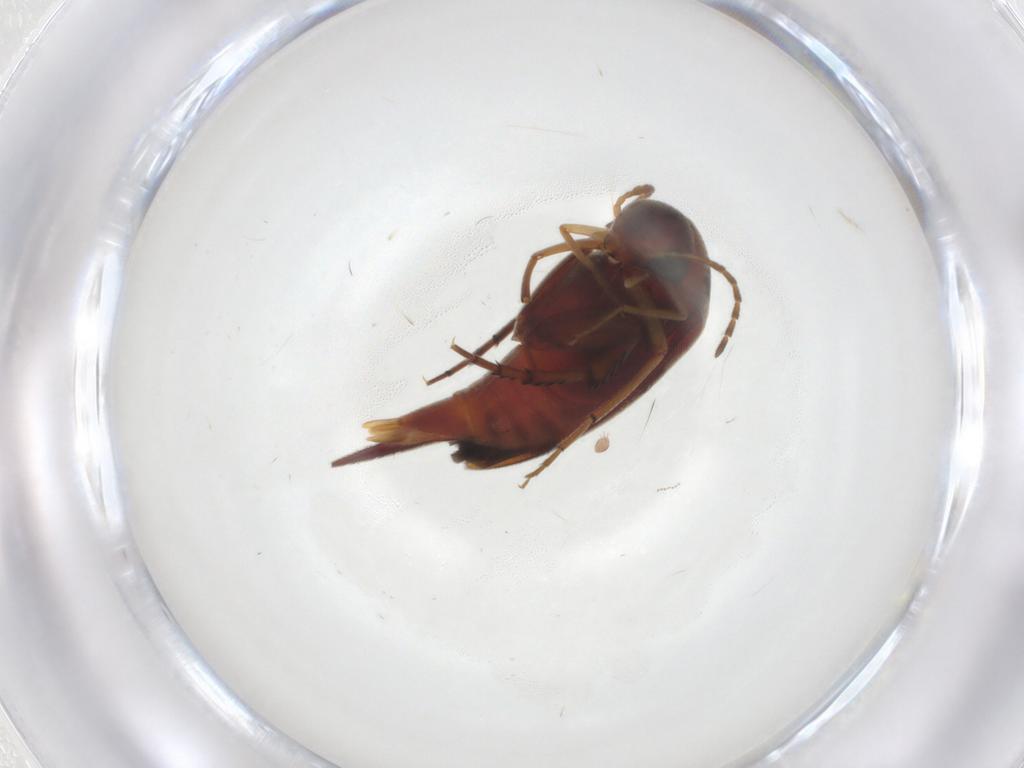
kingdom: Animalia
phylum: Arthropoda
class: Insecta
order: Coleoptera
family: Mordellidae
